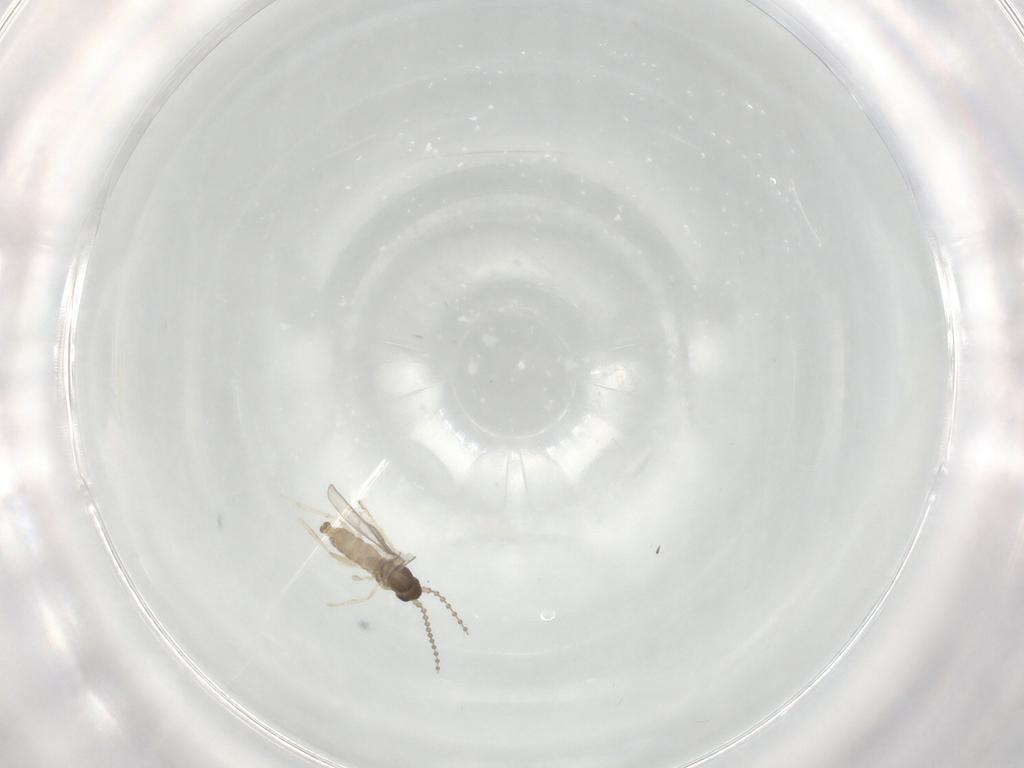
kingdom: Animalia
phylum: Arthropoda
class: Insecta
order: Diptera
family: Cecidomyiidae
